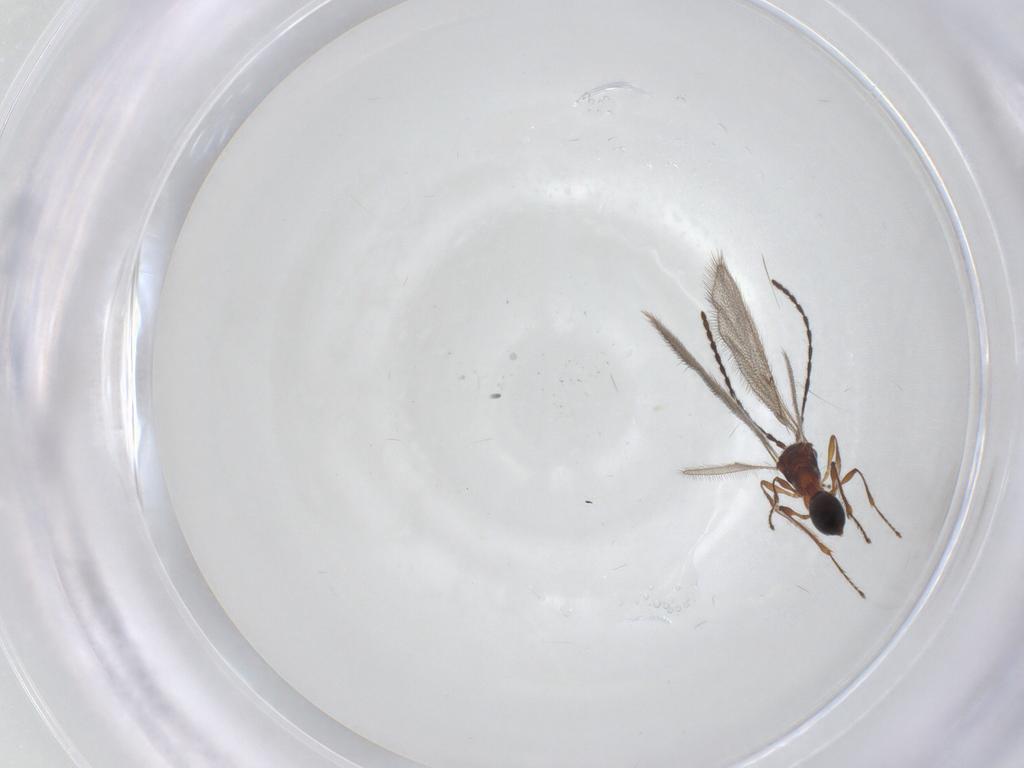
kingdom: Animalia
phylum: Arthropoda
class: Insecta
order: Hymenoptera
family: Diapriidae
